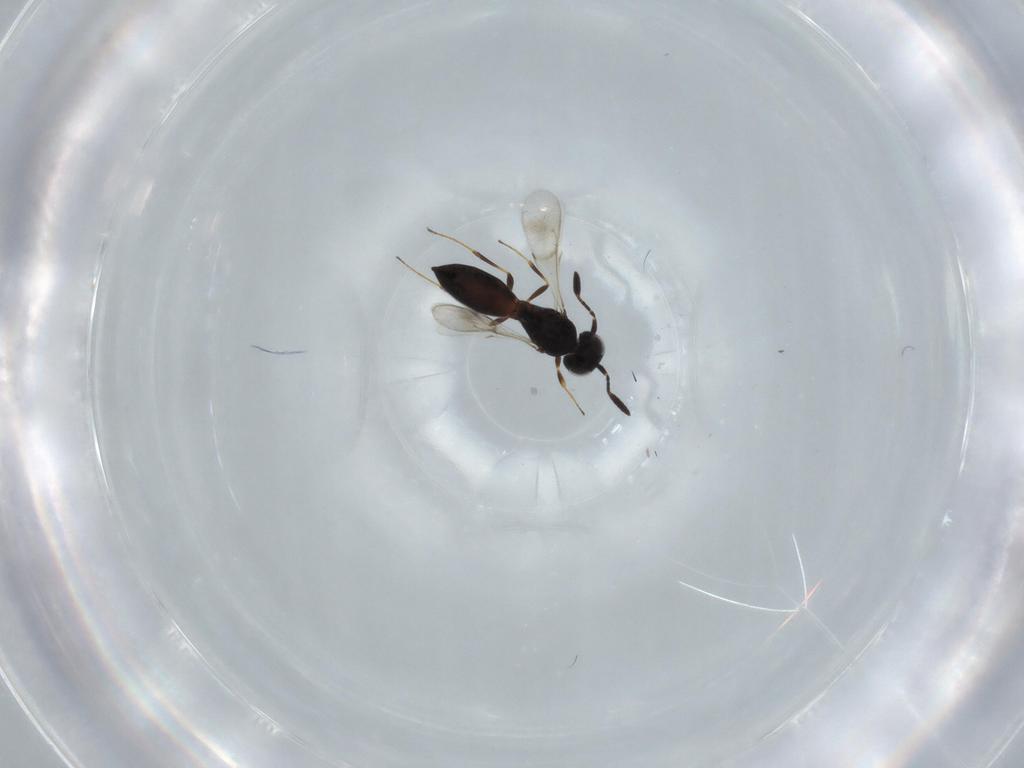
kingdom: Animalia
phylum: Arthropoda
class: Insecta
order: Hymenoptera
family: Scelionidae
